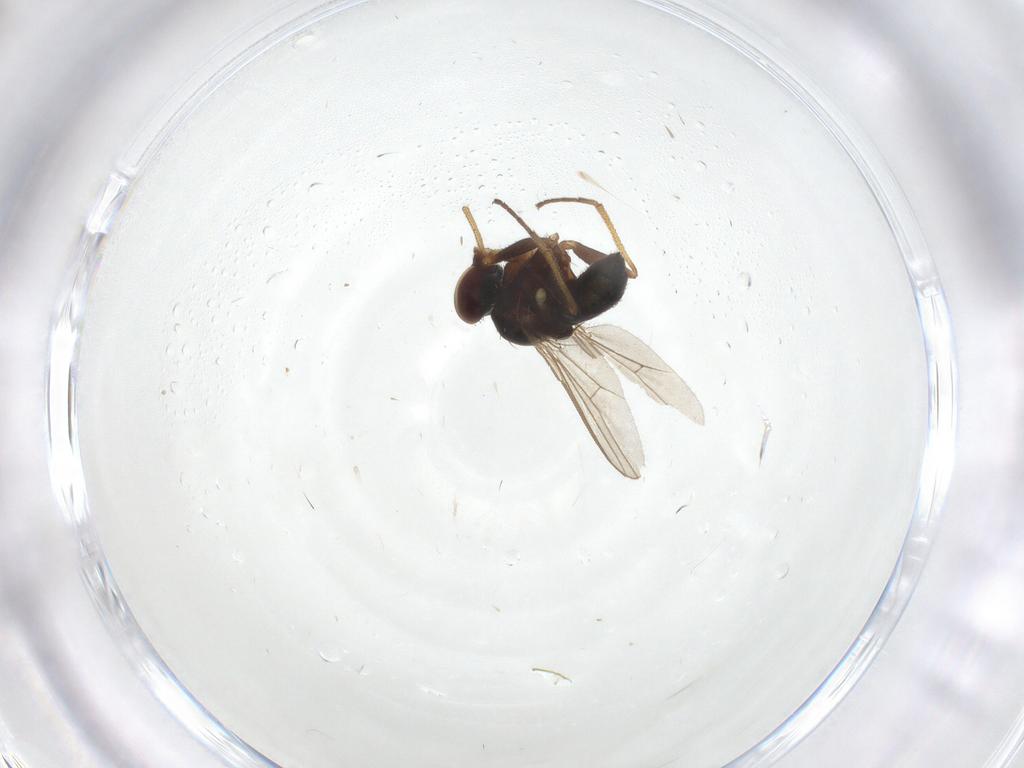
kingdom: Animalia
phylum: Arthropoda
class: Insecta
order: Diptera
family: Dolichopodidae
